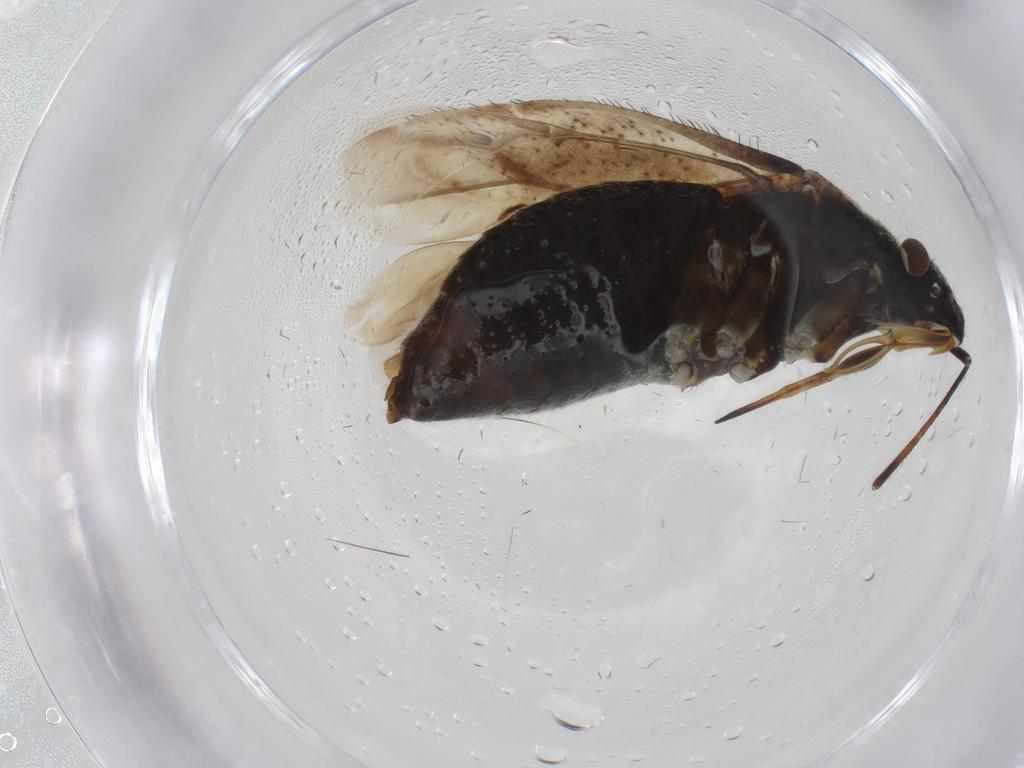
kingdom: Animalia
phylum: Arthropoda
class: Insecta
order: Hemiptera
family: Miridae
